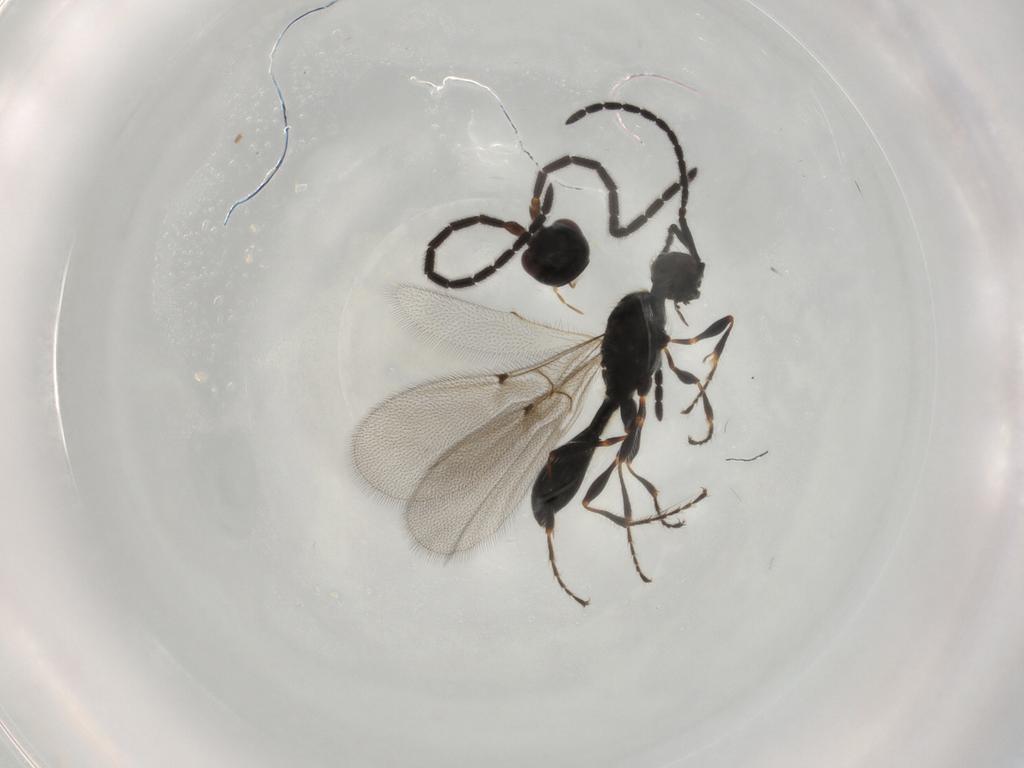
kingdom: Animalia
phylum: Arthropoda
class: Insecta
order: Hymenoptera
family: Diapriidae
